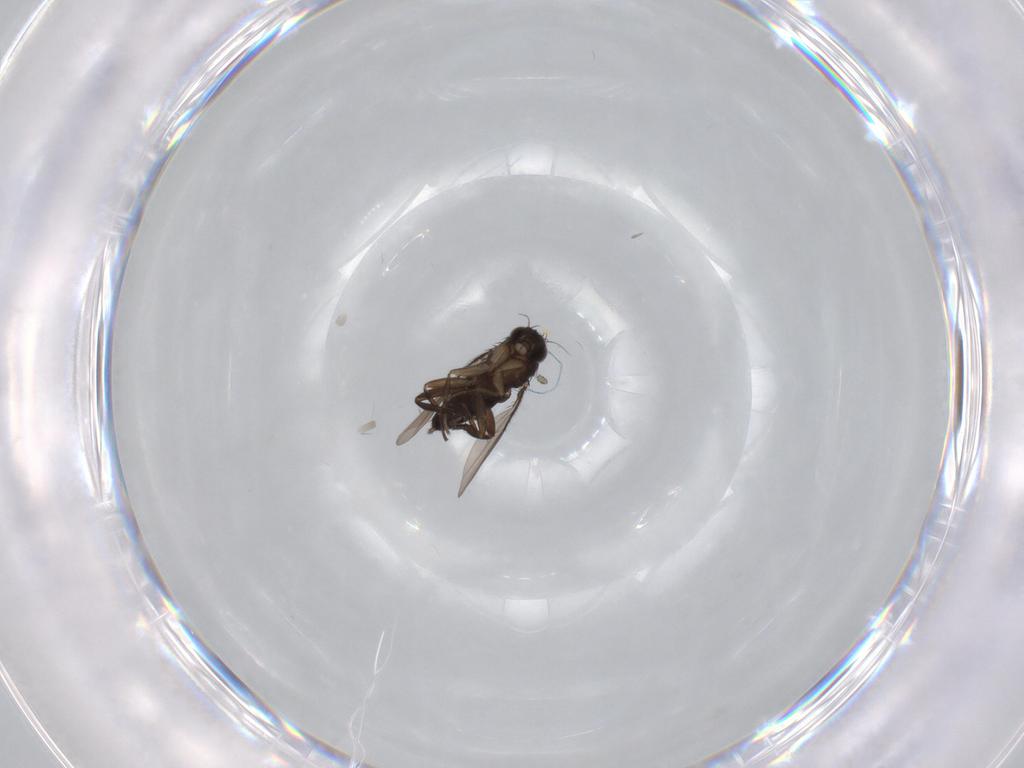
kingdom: Animalia
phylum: Arthropoda
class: Insecta
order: Diptera
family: Phoridae
